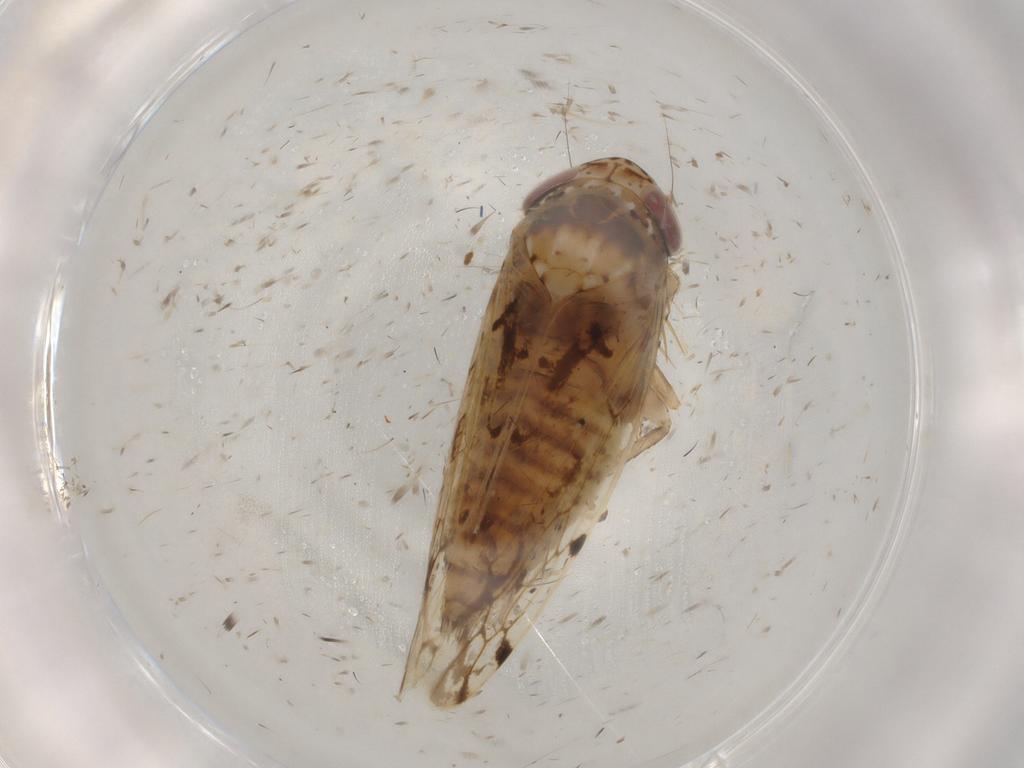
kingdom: Animalia
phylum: Arthropoda
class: Insecta
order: Hemiptera
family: Cicadellidae
